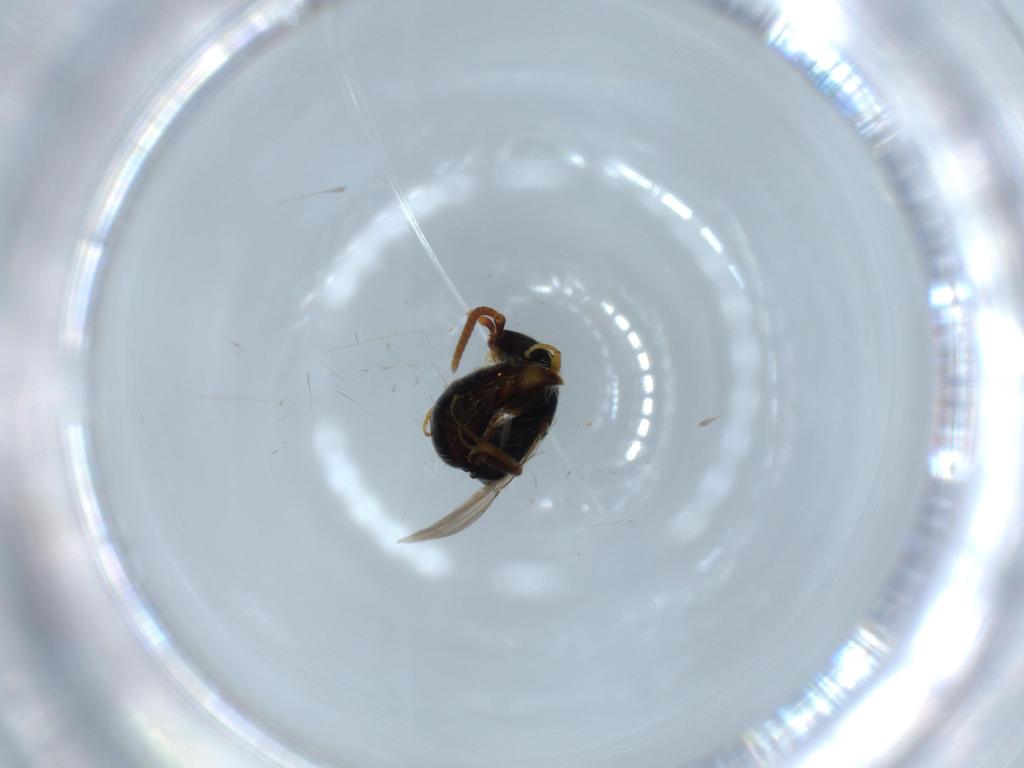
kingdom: Animalia
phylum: Arthropoda
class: Insecta
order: Hymenoptera
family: Bethylidae
